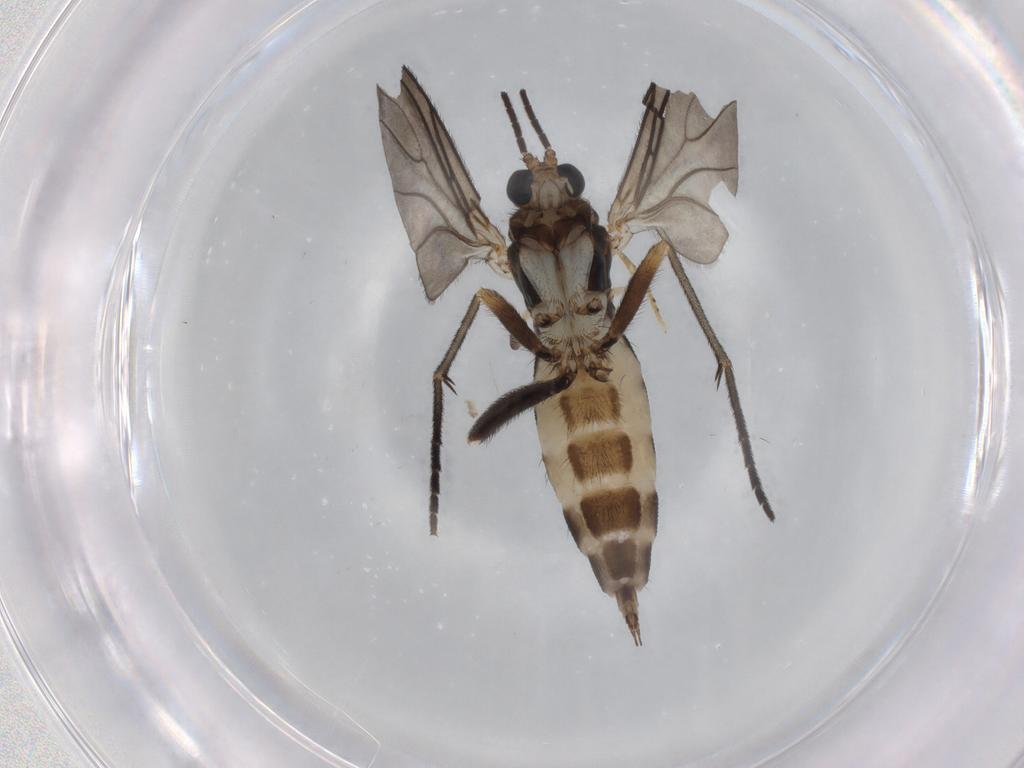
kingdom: Animalia
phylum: Arthropoda
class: Insecta
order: Diptera
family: Sciaridae
